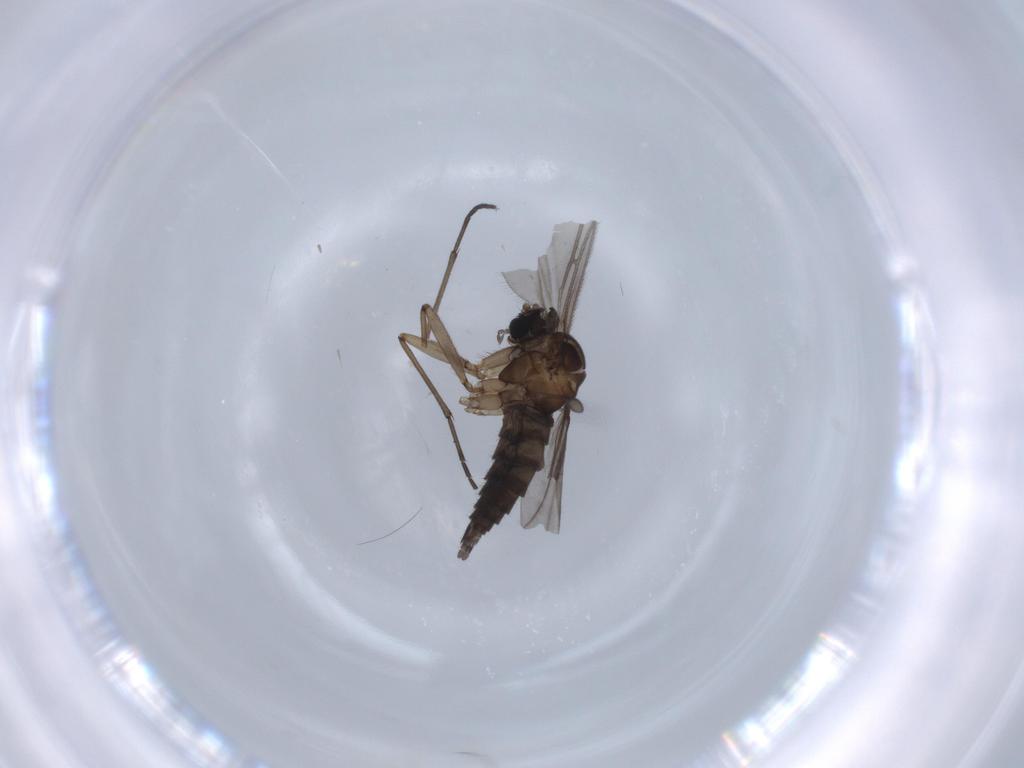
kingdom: Animalia
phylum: Arthropoda
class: Insecta
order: Diptera
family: Sciaridae
